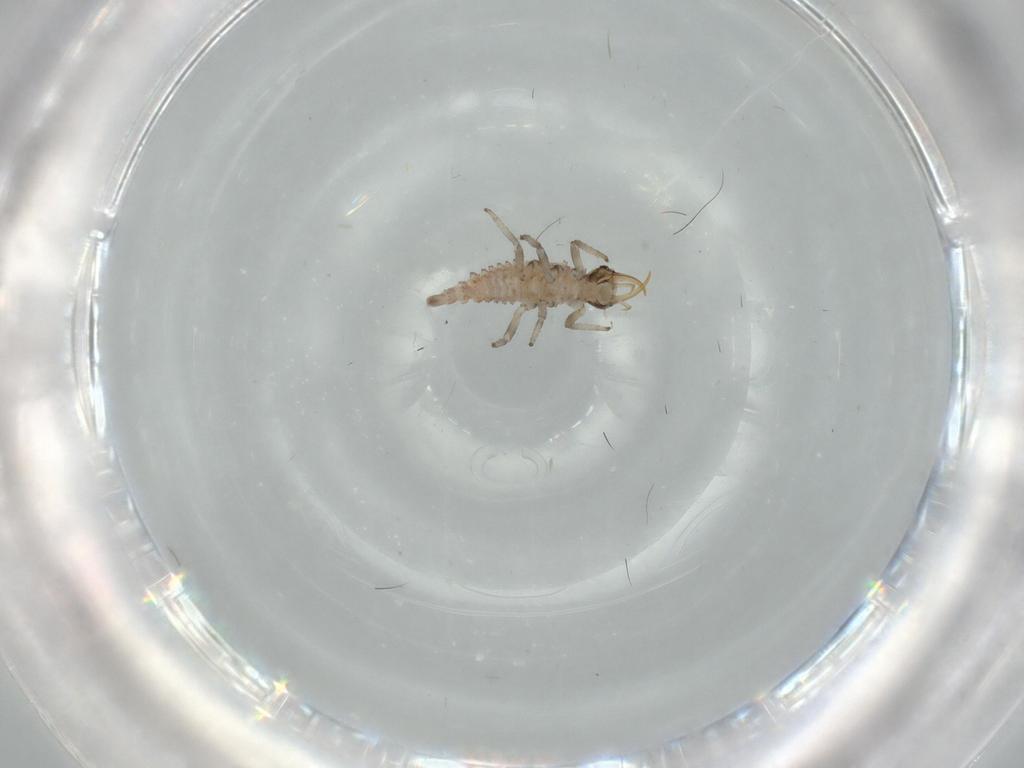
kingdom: Animalia
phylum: Arthropoda
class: Insecta
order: Neuroptera
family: Chrysopidae
